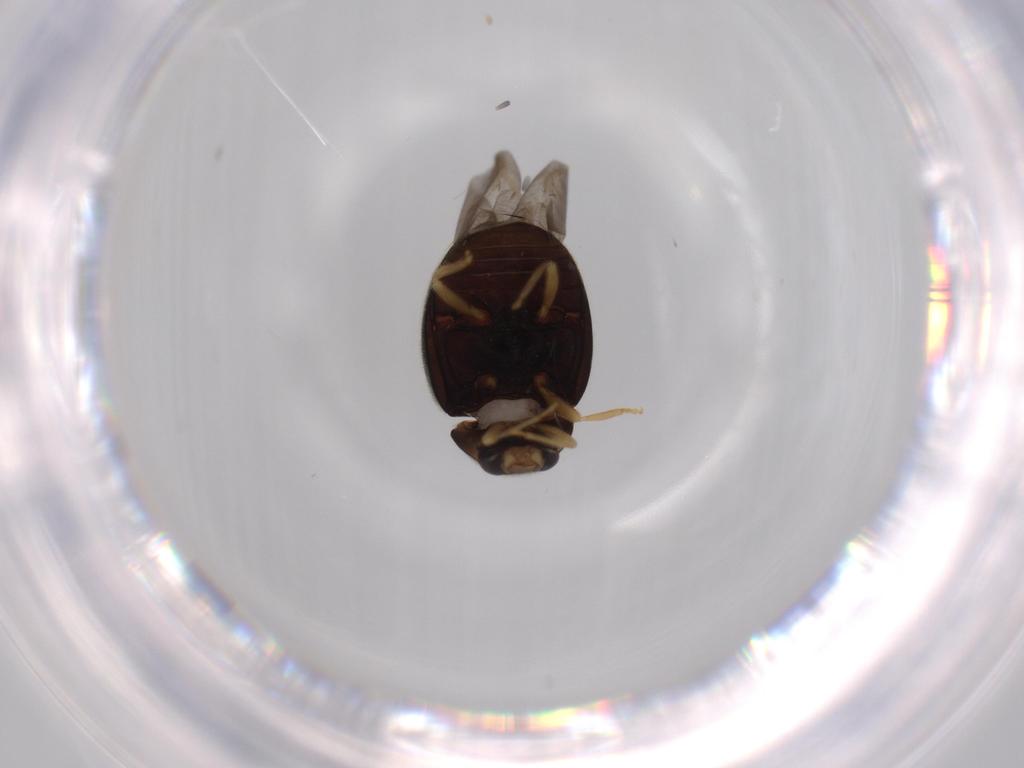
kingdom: Animalia
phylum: Arthropoda
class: Insecta
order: Coleoptera
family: Coccinellidae
